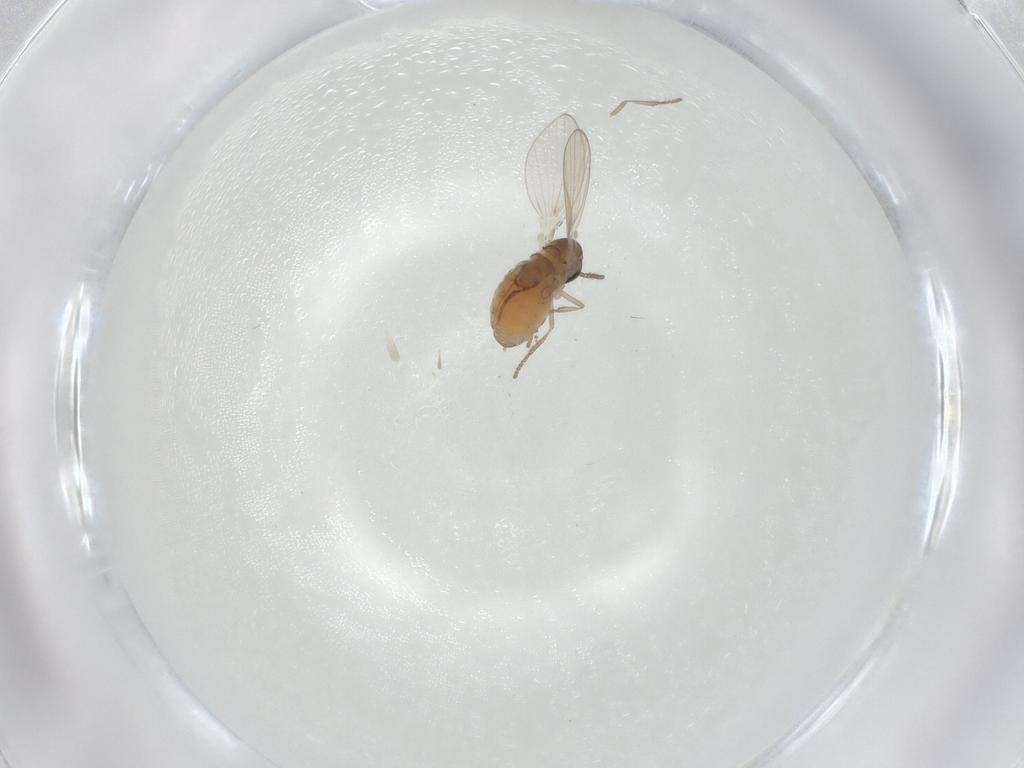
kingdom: Animalia
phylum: Arthropoda
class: Insecta
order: Diptera
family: Psychodidae
